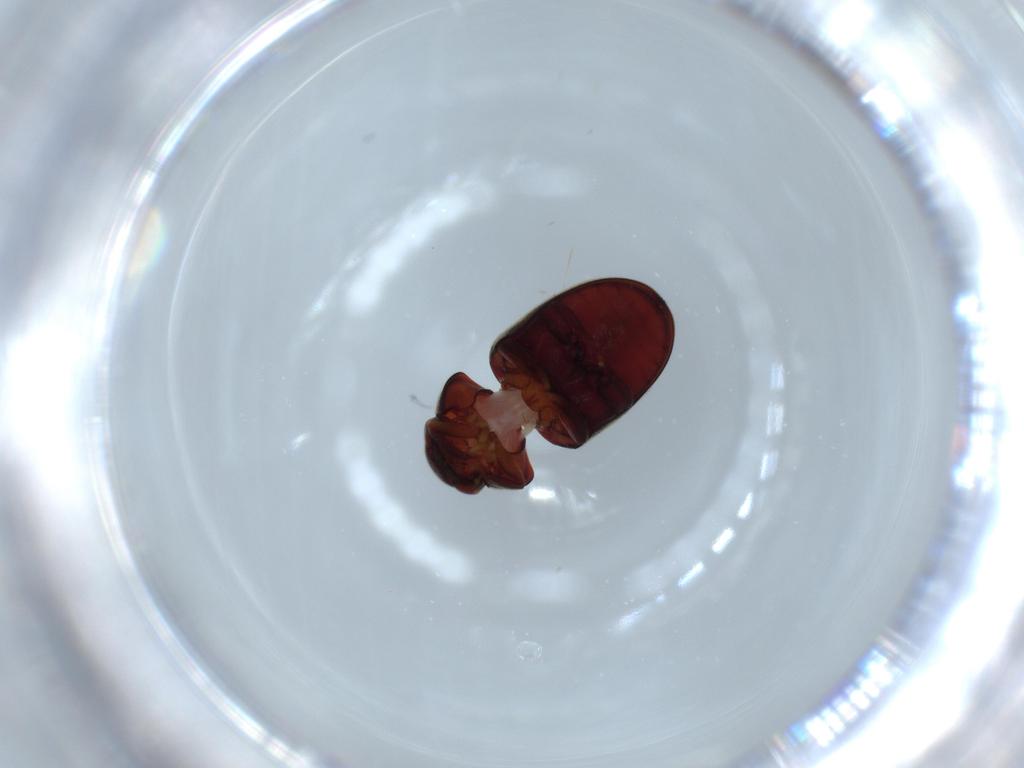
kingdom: Animalia
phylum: Arthropoda
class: Insecta
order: Coleoptera
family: Ptinidae
